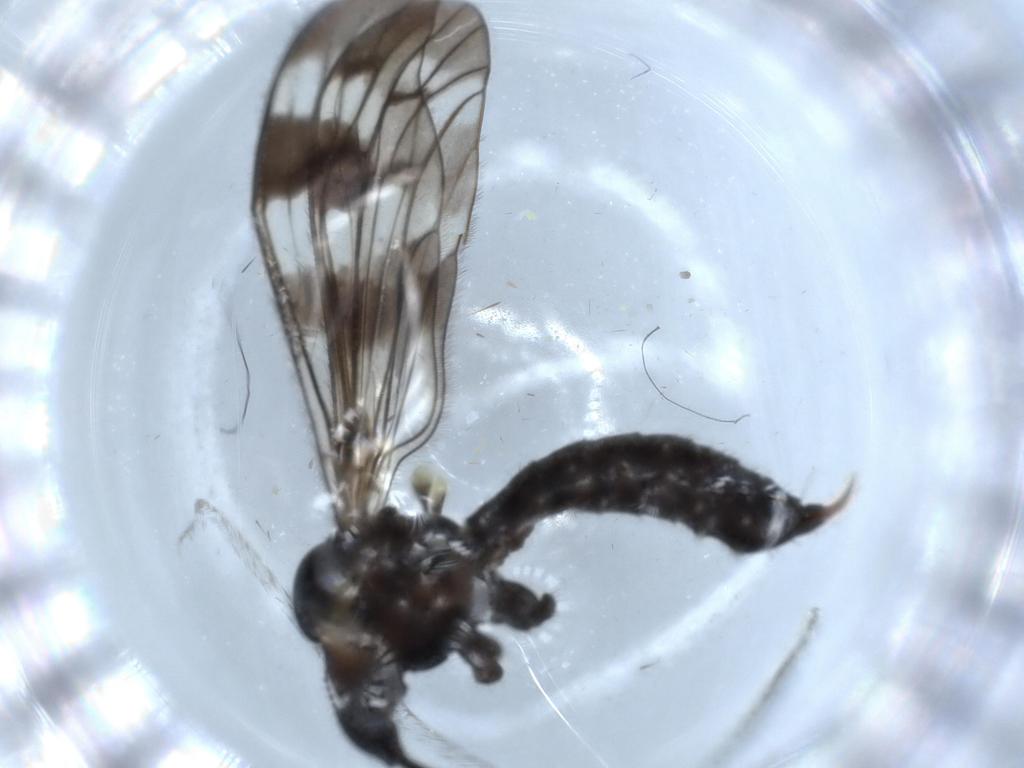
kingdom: Animalia
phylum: Arthropoda
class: Insecta
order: Diptera
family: Limoniidae
